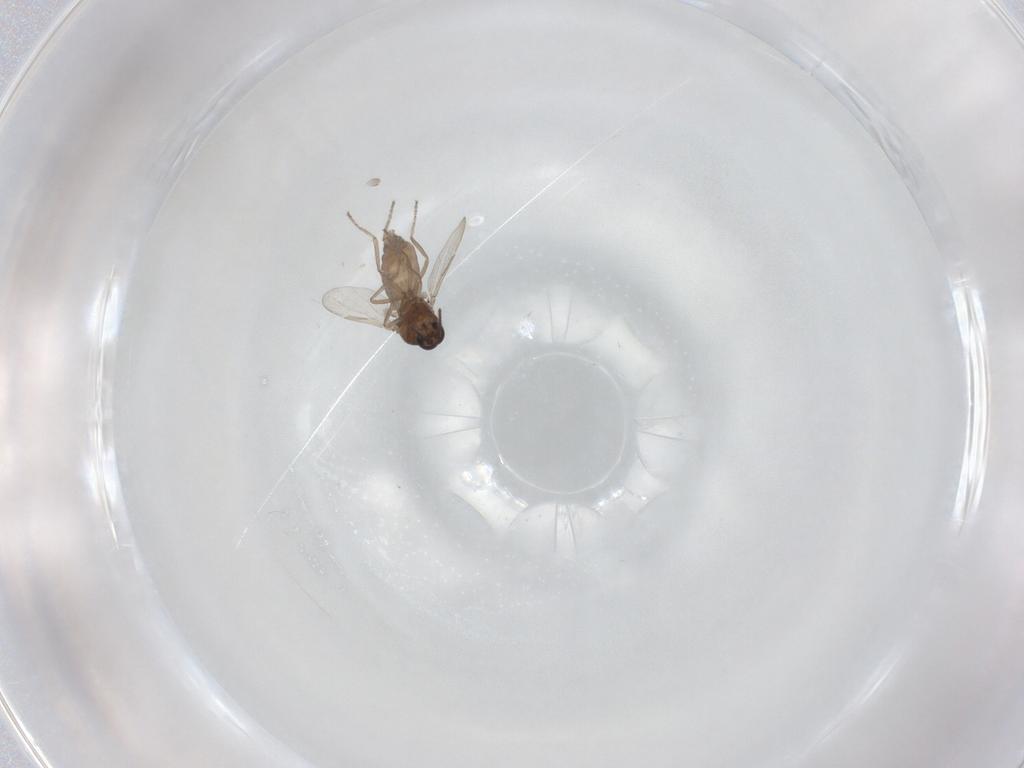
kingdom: Animalia
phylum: Arthropoda
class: Insecta
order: Diptera
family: Ceratopogonidae
